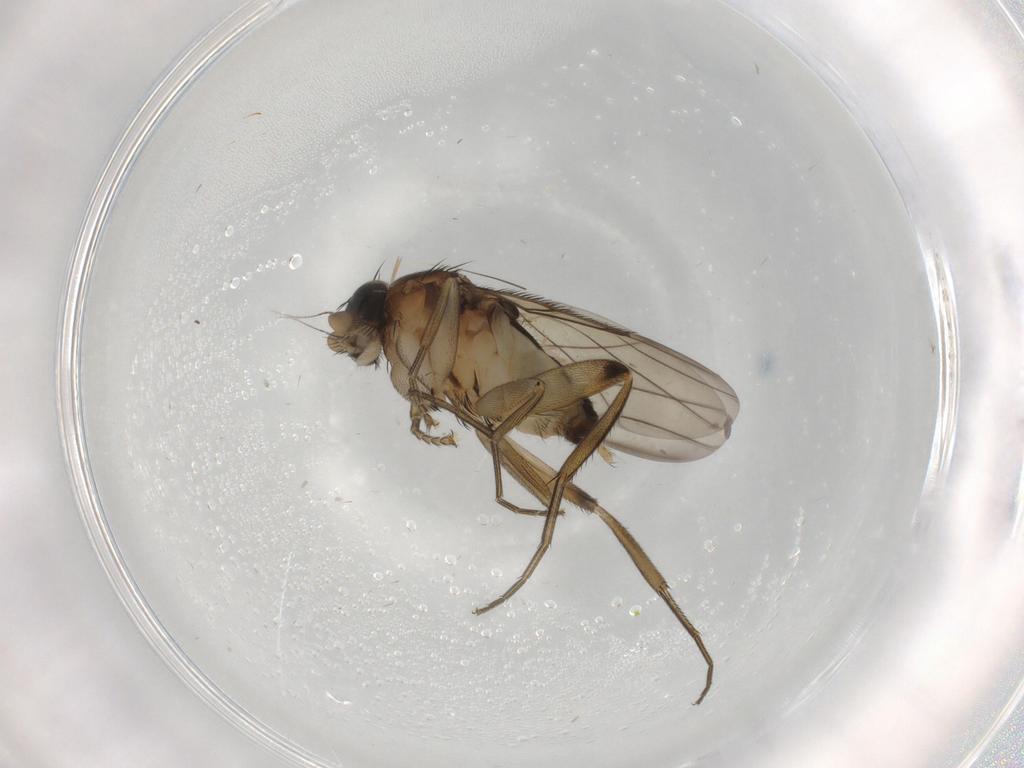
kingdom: Animalia
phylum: Arthropoda
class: Insecta
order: Diptera
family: Phoridae
